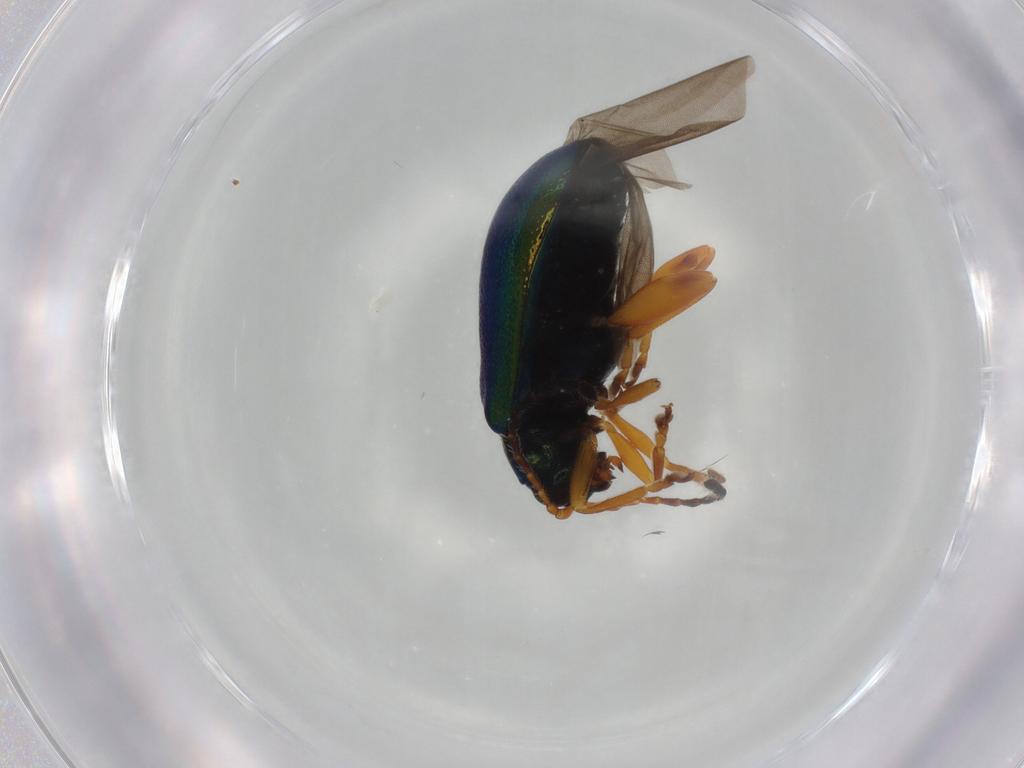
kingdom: Animalia
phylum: Arthropoda
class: Insecta
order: Coleoptera
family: Chrysomelidae
